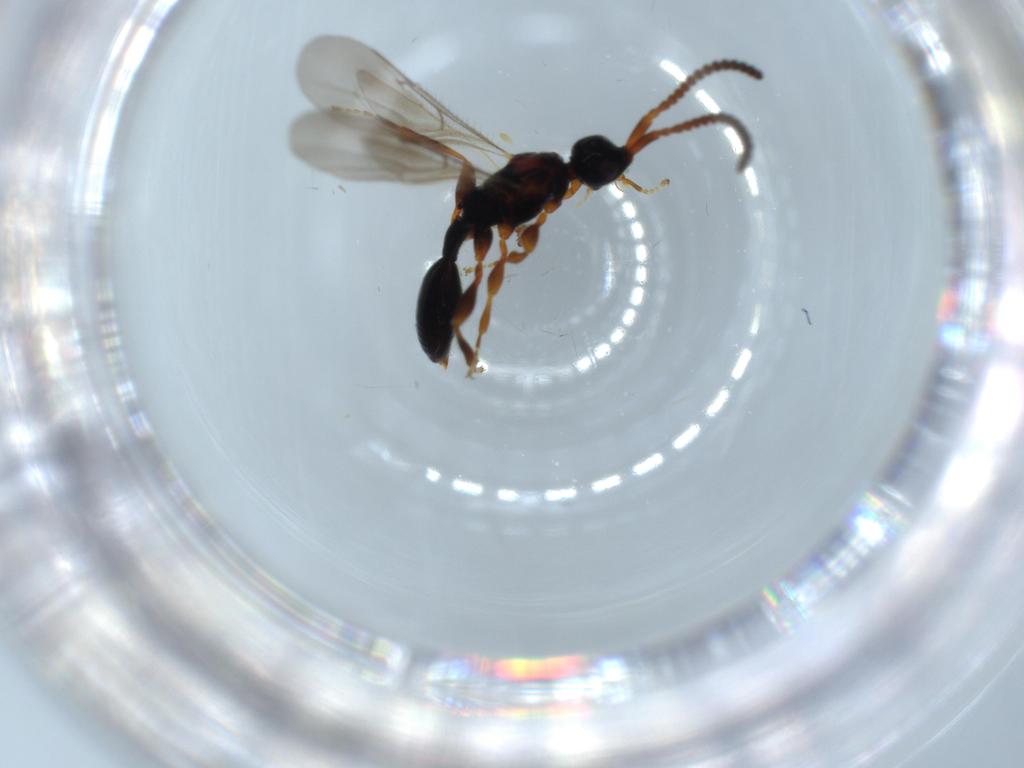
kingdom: Animalia
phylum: Arthropoda
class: Insecta
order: Hymenoptera
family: Diapriidae
